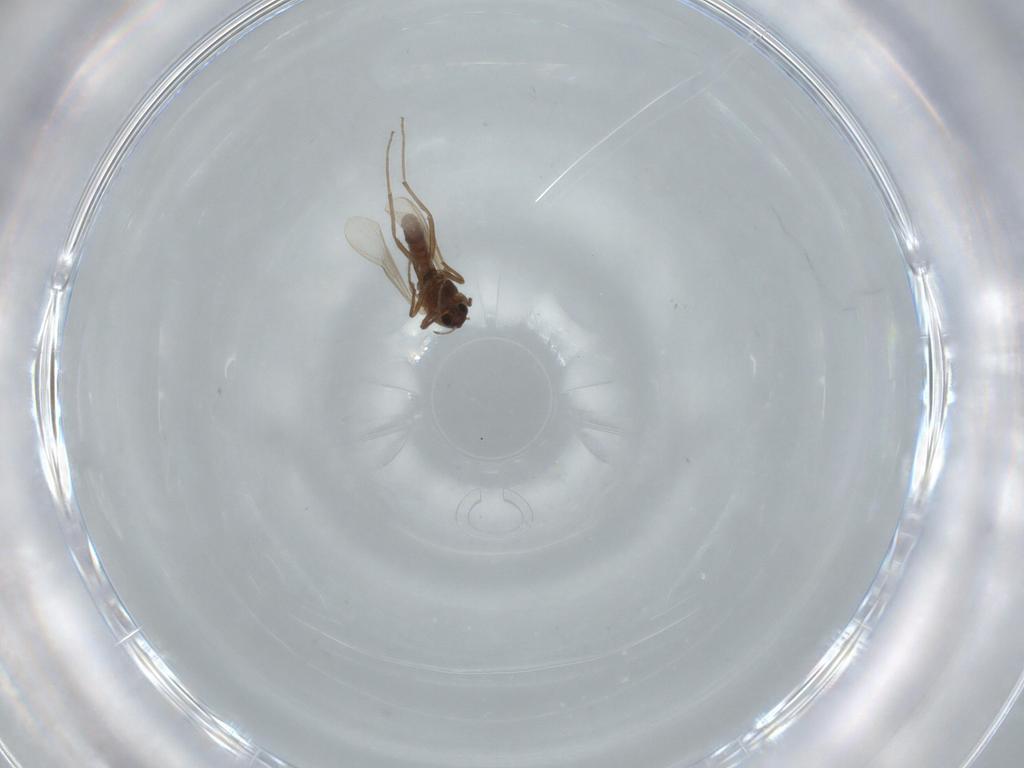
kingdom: Animalia
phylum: Arthropoda
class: Insecta
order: Diptera
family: Chironomidae
